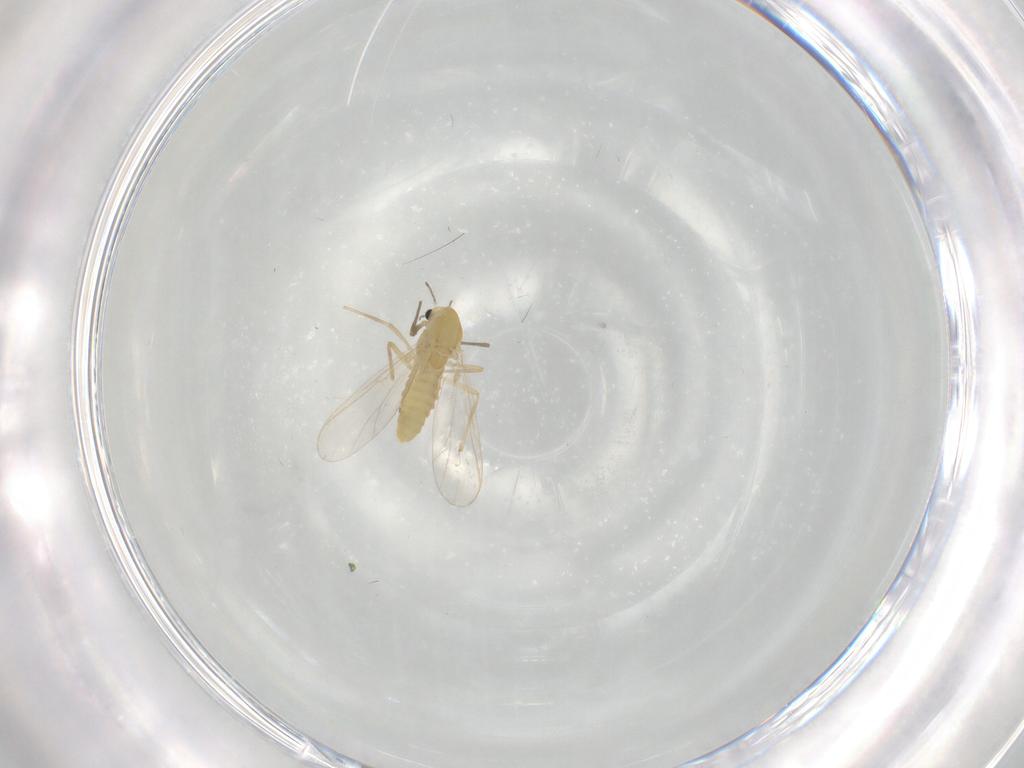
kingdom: Animalia
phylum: Arthropoda
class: Insecta
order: Diptera
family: Chironomidae
